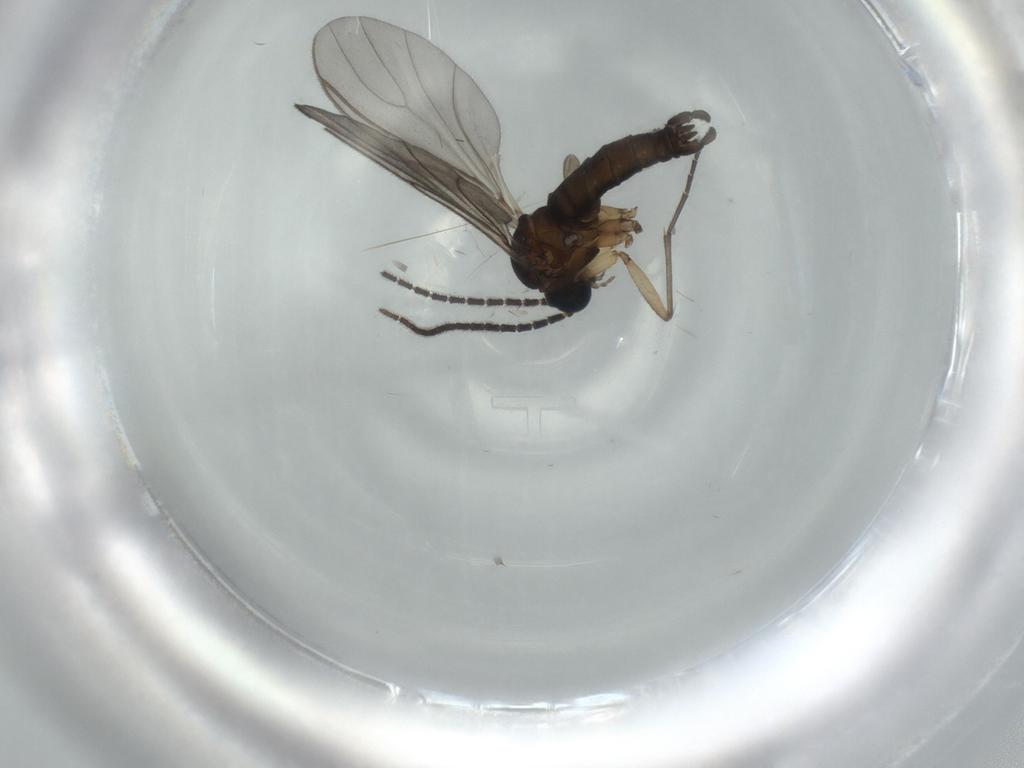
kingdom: Animalia
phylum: Arthropoda
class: Insecta
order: Diptera
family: Sciaridae
